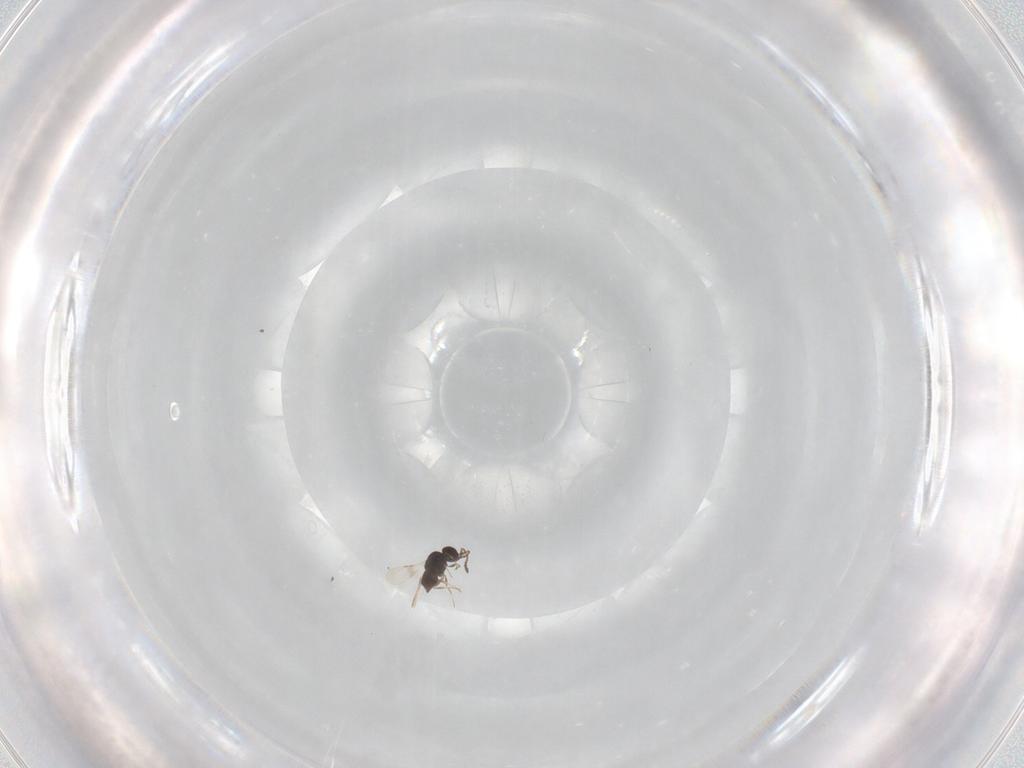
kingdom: Animalia
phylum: Arthropoda
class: Insecta
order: Hymenoptera
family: Ceraphronidae
